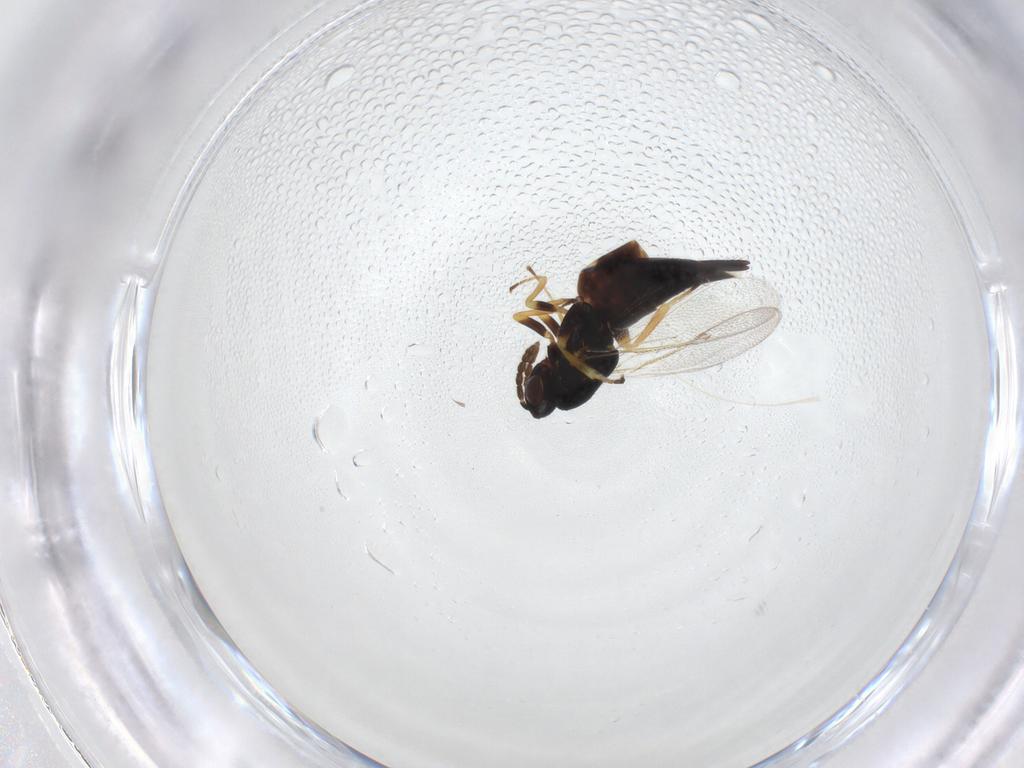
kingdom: Animalia
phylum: Arthropoda
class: Insecta
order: Hymenoptera
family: Eulophidae
